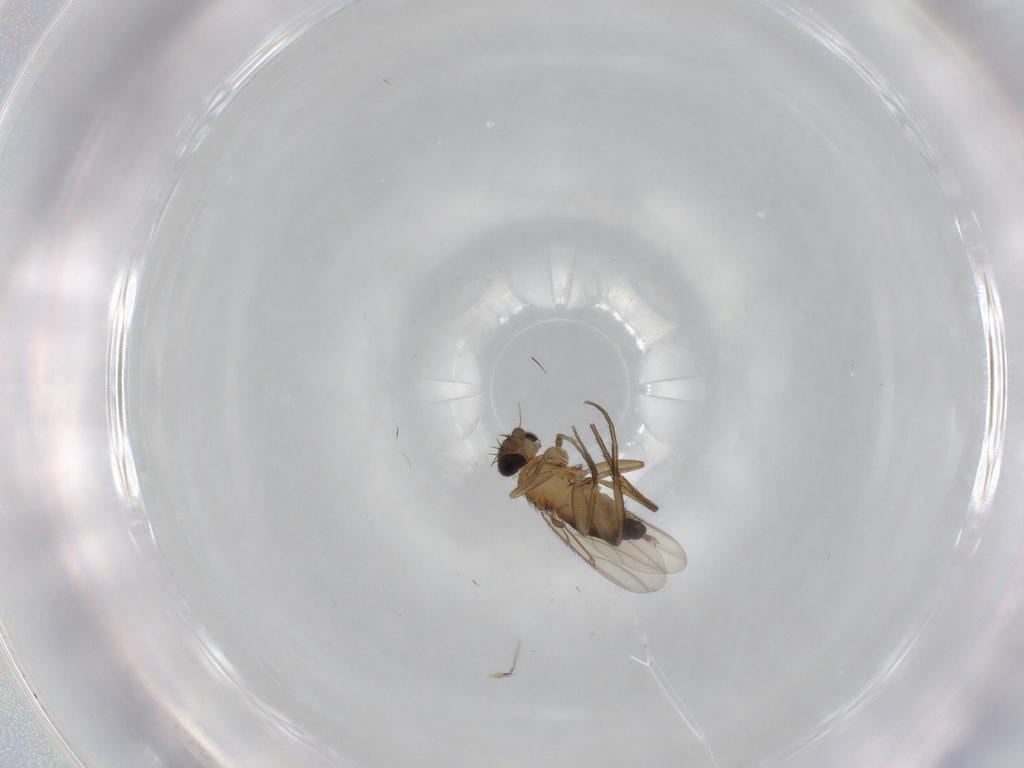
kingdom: Animalia
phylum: Arthropoda
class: Insecta
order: Diptera
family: Phoridae
